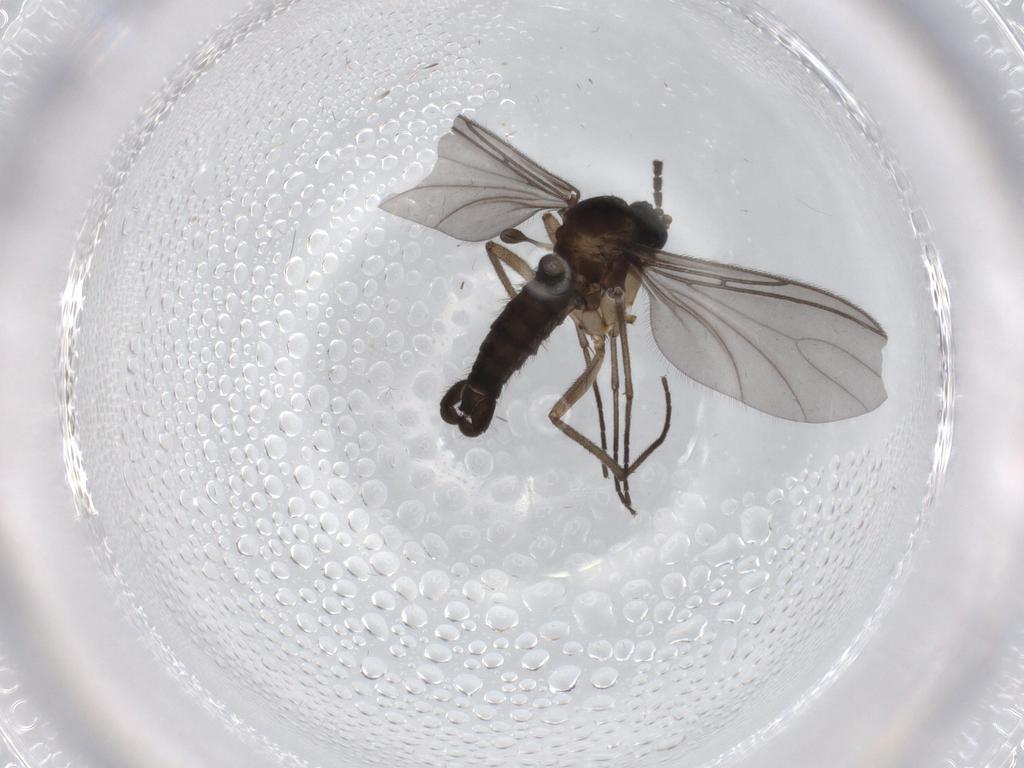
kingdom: Animalia
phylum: Arthropoda
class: Insecta
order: Diptera
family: Sciaridae
